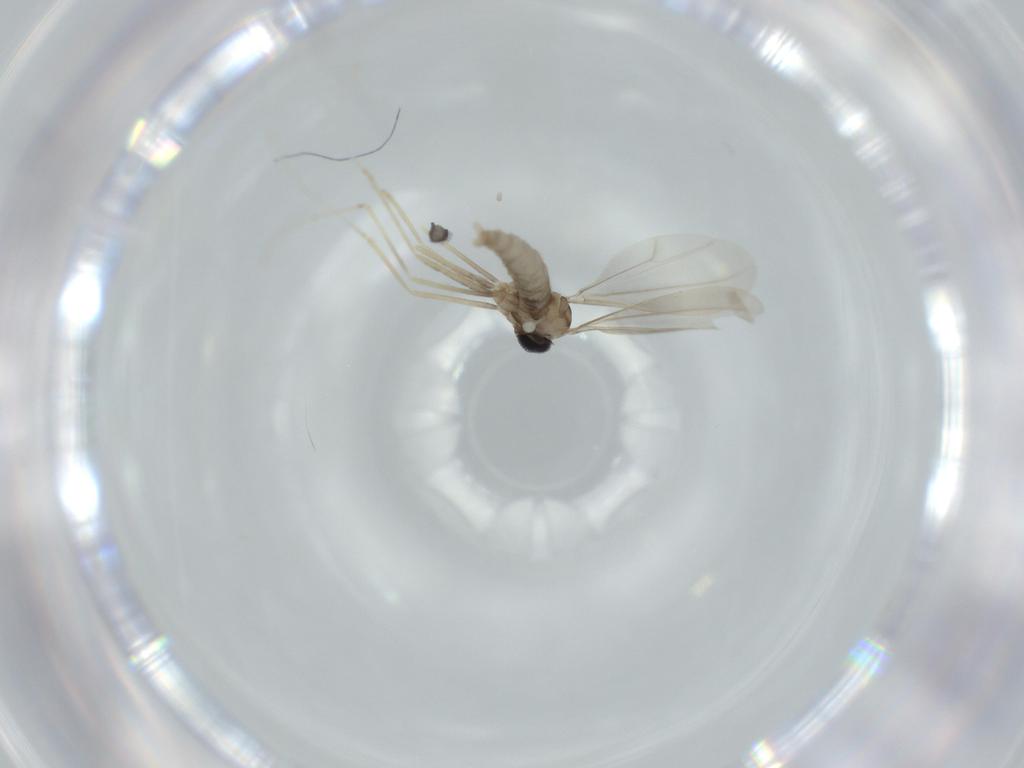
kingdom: Animalia
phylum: Arthropoda
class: Insecta
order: Diptera
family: Cecidomyiidae
